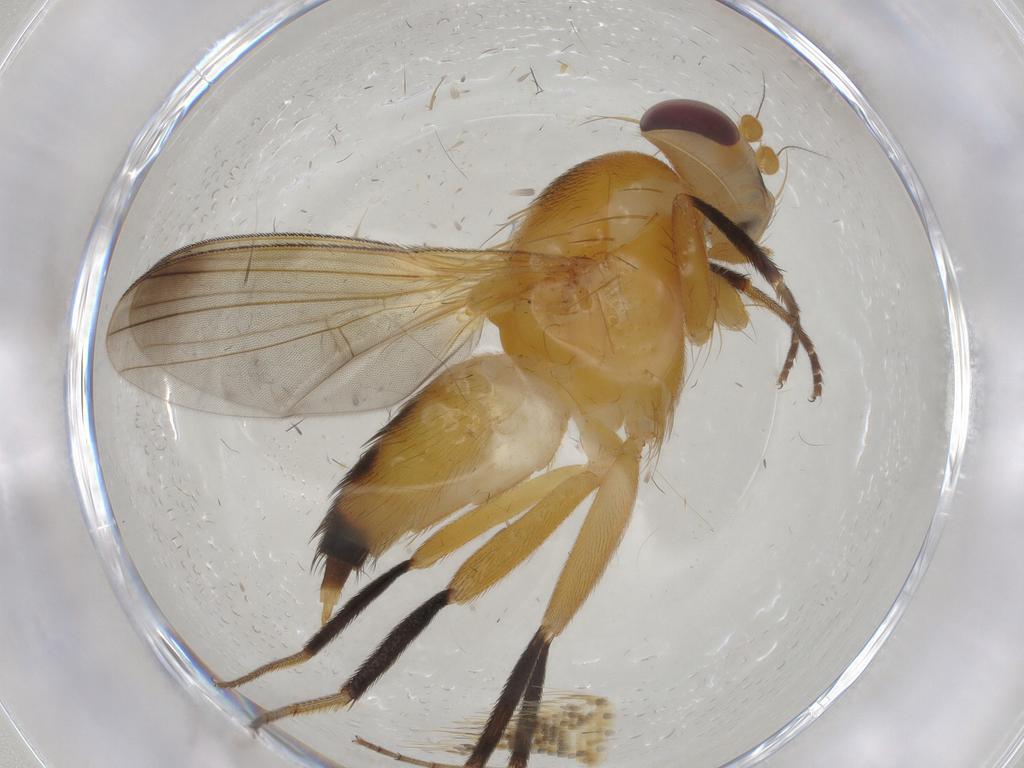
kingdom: Animalia
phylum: Arthropoda
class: Insecta
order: Diptera
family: Heleomyzidae
